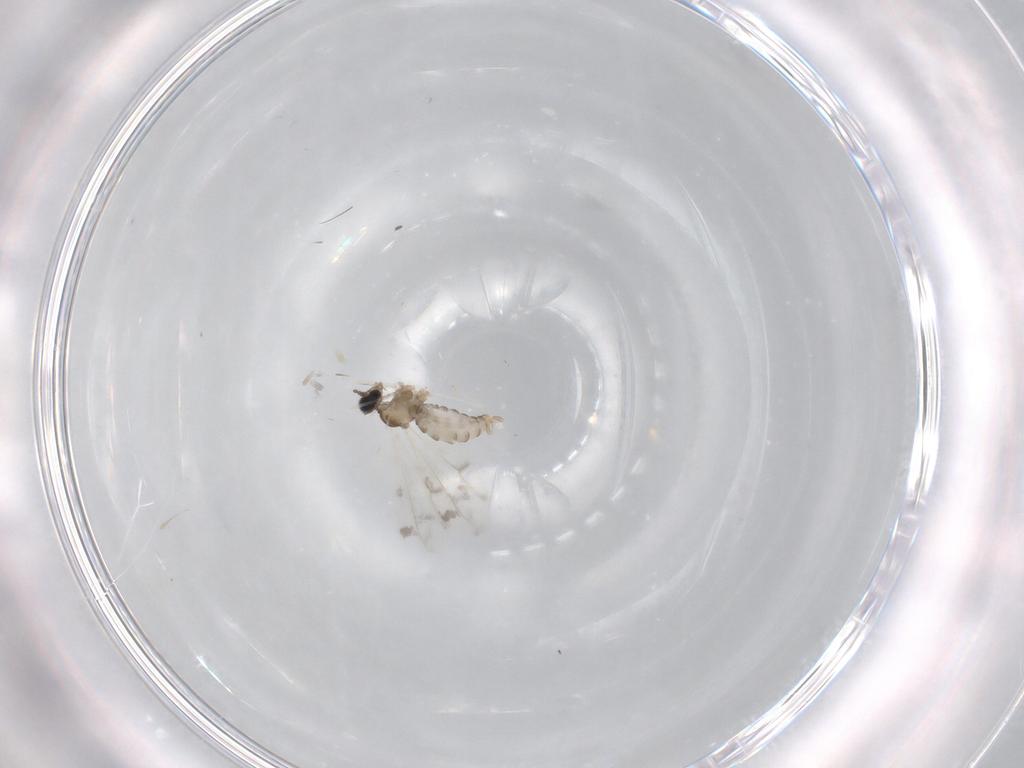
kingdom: Animalia
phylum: Arthropoda
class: Insecta
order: Diptera
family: Cecidomyiidae
